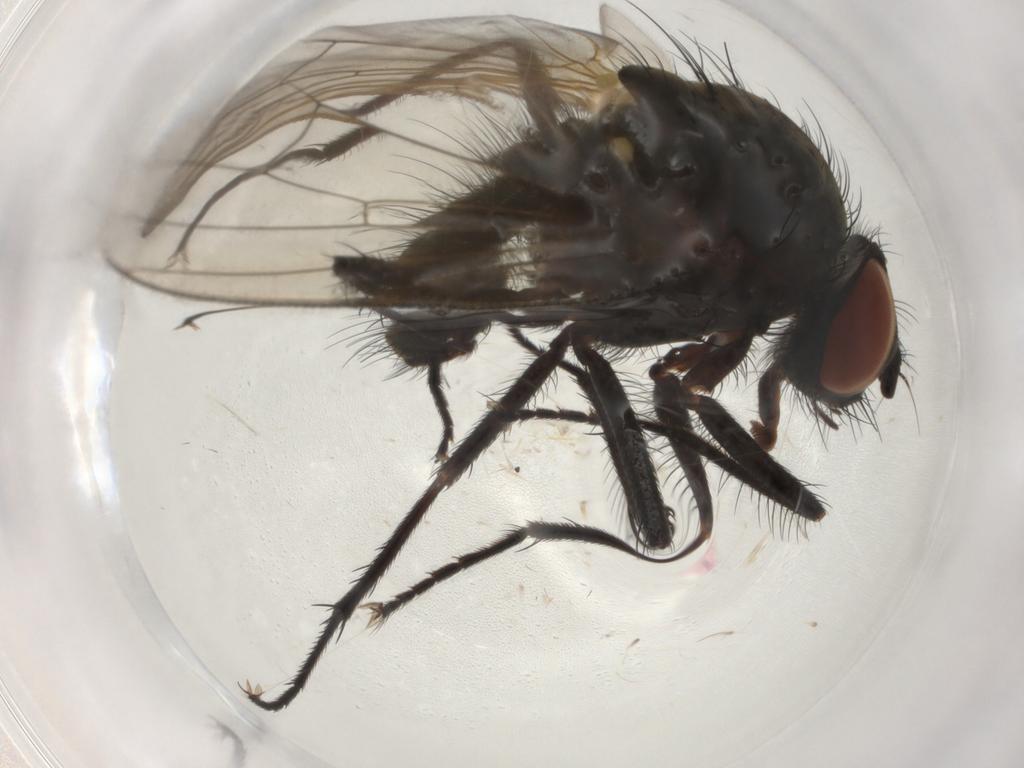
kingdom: Animalia
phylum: Arthropoda
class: Insecta
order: Diptera
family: Anthomyiidae
